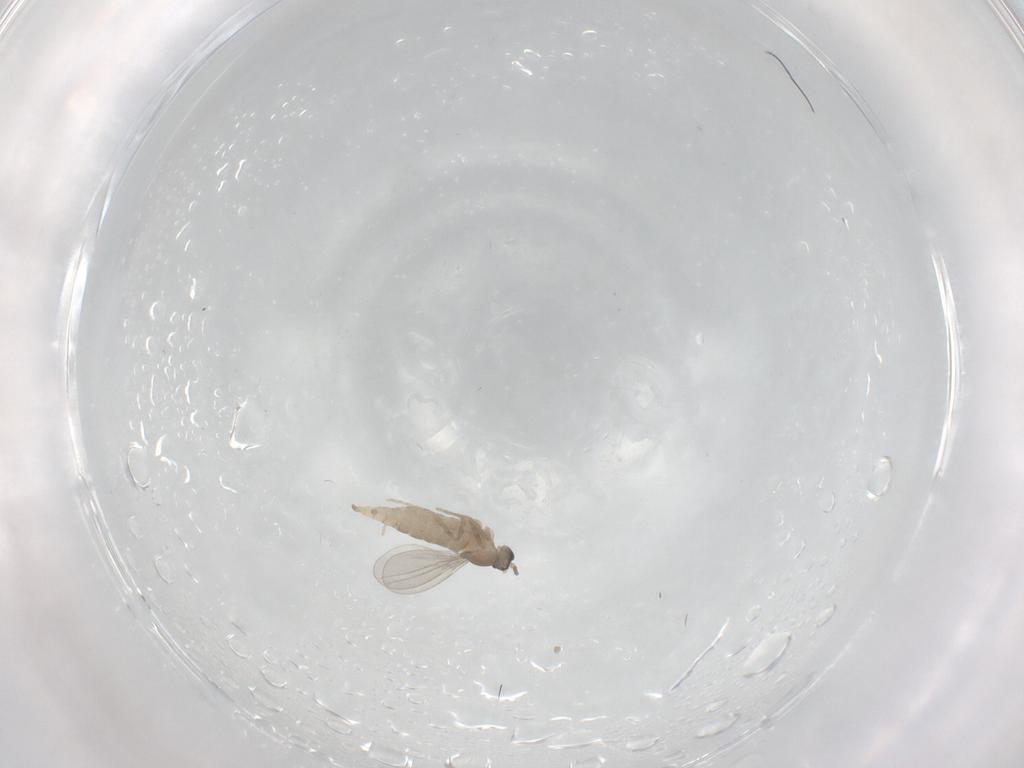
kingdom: Animalia
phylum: Arthropoda
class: Insecta
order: Diptera
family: Cecidomyiidae
